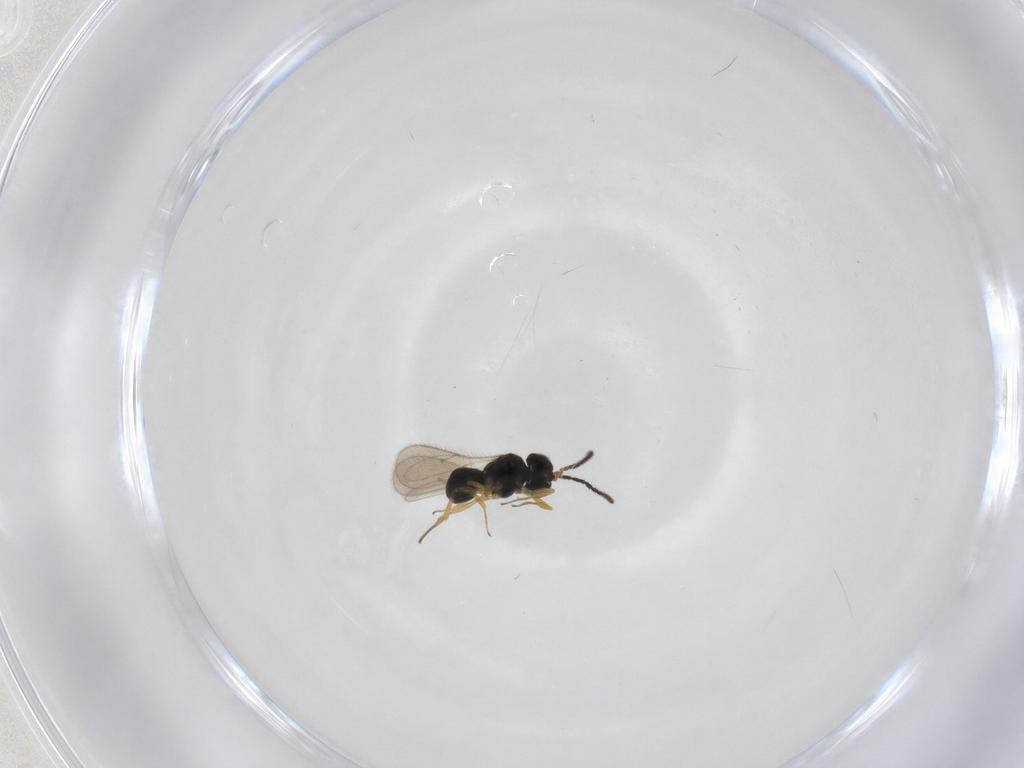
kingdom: Animalia
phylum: Arthropoda
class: Insecta
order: Hymenoptera
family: Scelionidae
